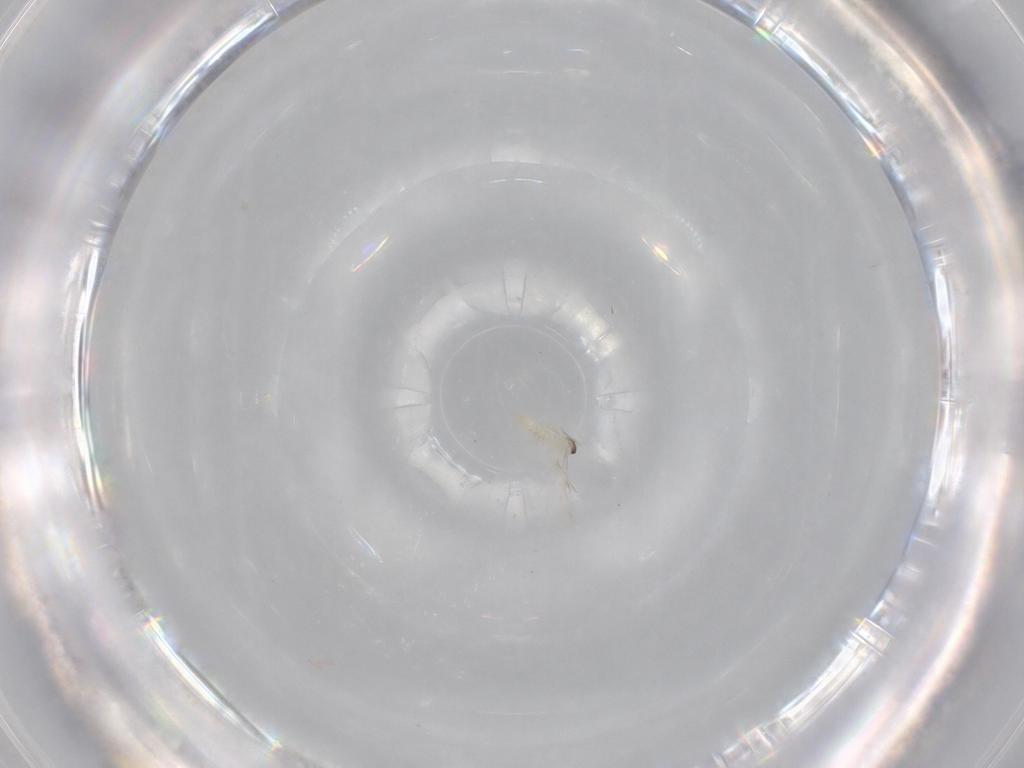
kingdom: Animalia
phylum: Arthropoda
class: Insecta
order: Diptera
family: Cecidomyiidae
